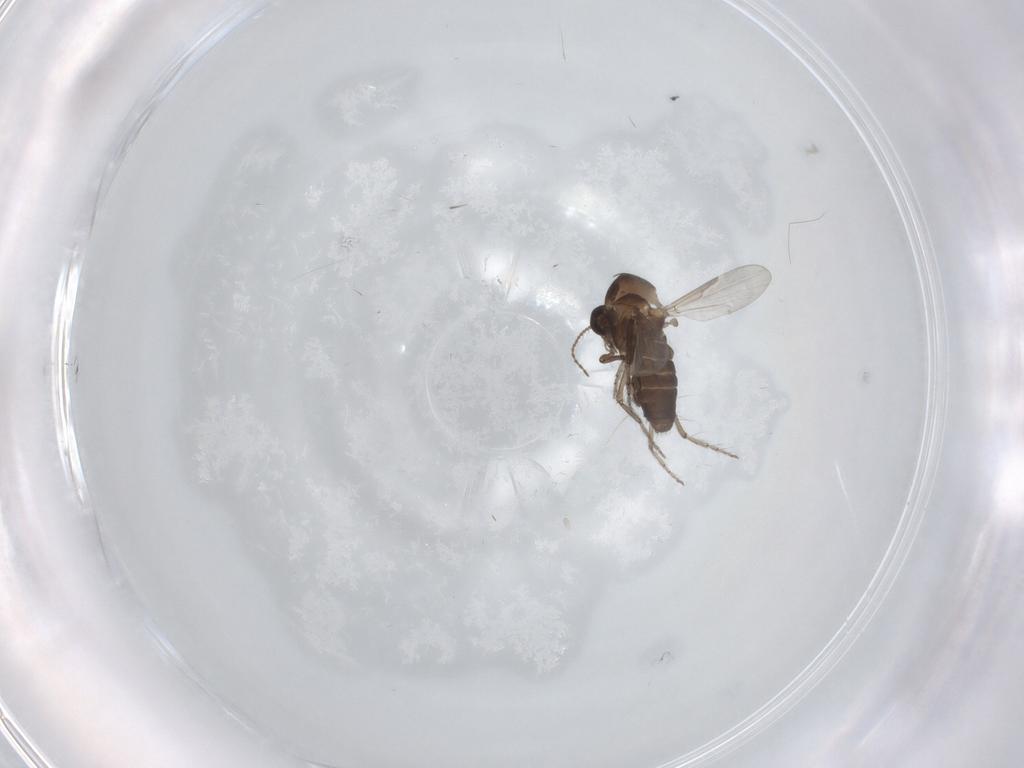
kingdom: Animalia
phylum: Arthropoda
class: Insecta
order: Diptera
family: Ceratopogonidae
